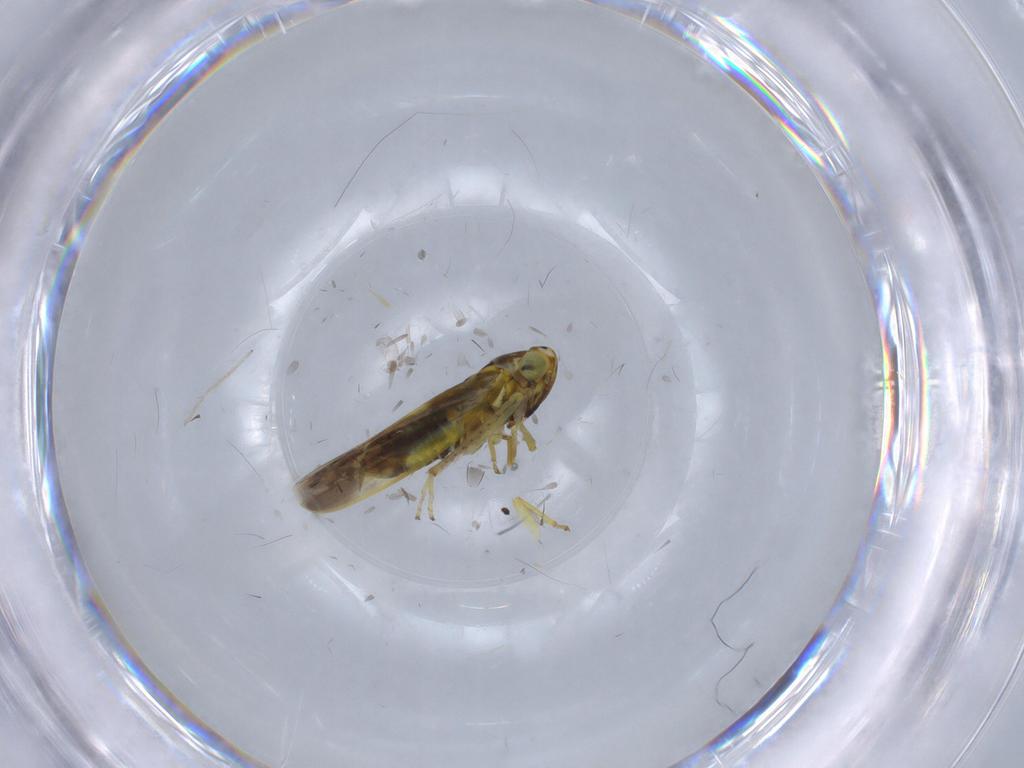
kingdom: Animalia
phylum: Arthropoda
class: Insecta
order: Hemiptera
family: Cicadellidae
